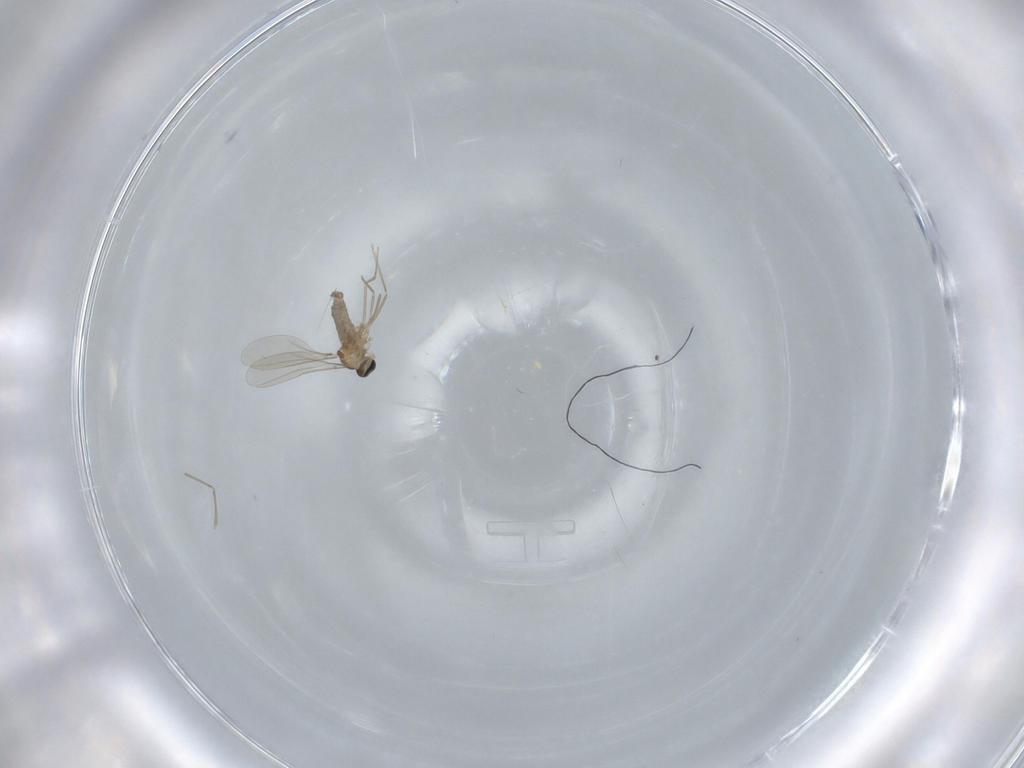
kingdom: Animalia
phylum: Arthropoda
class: Insecta
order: Diptera
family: Cecidomyiidae
